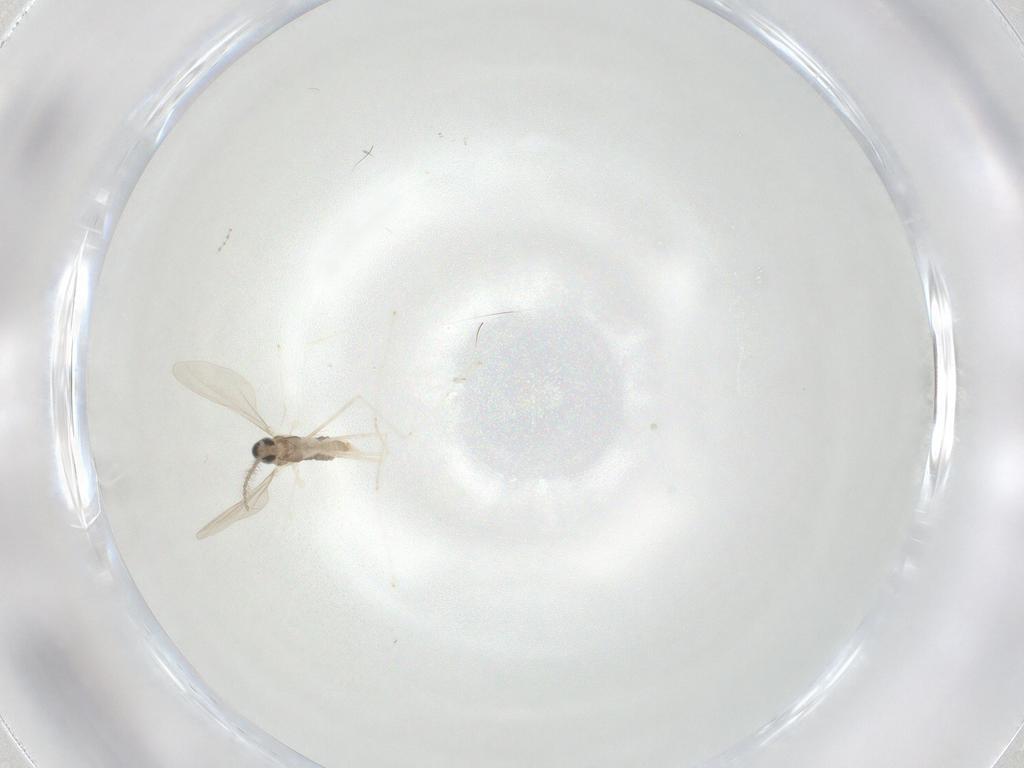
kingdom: Animalia
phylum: Arthropoda
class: Insecta
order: Diptera
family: Cecidomyiidae
